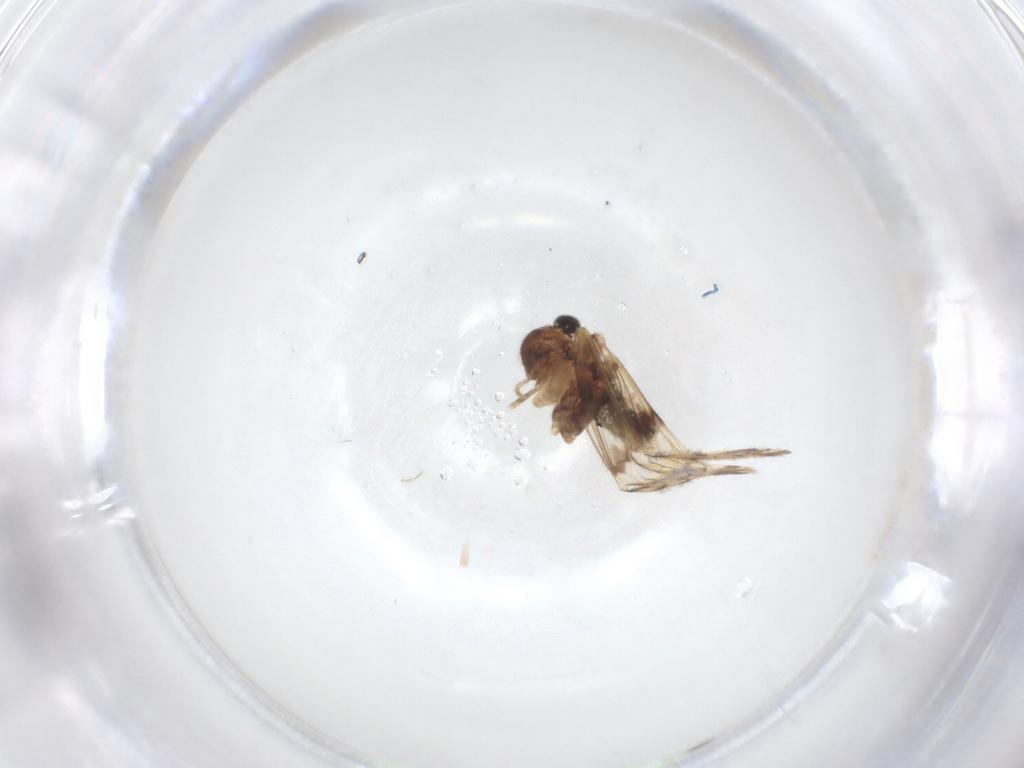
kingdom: Animalia
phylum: Arthropoda
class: Insecta
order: Psocodea
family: Epipsocidae
